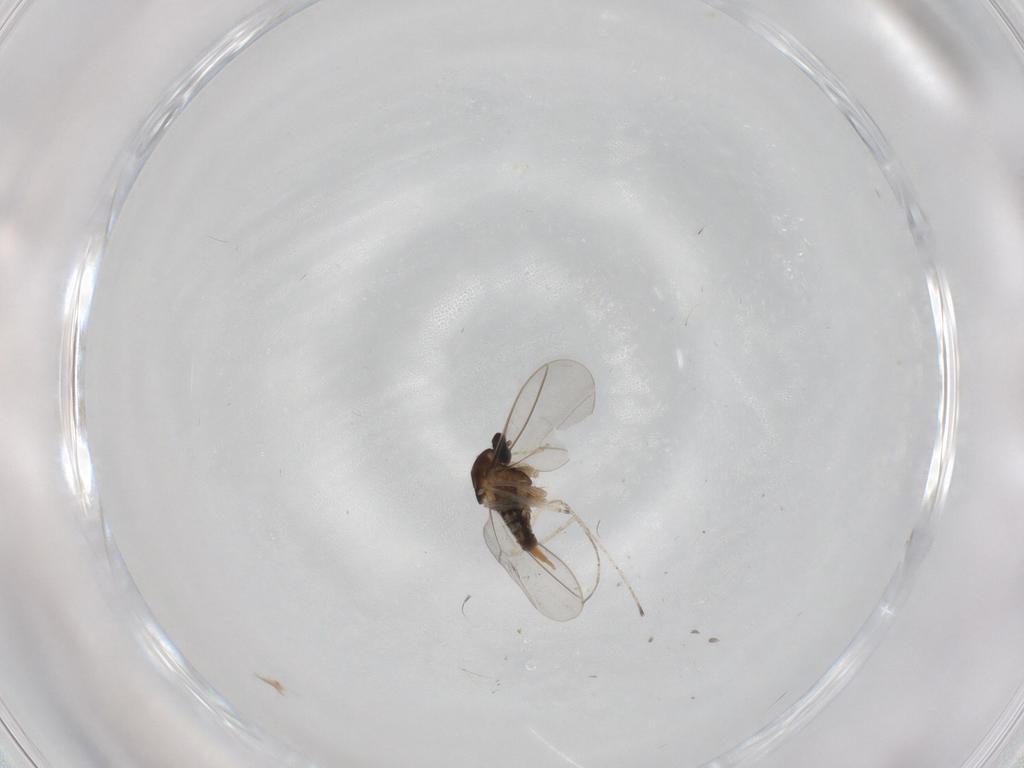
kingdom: Animalia
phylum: Arthropoda
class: Insecta
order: Diptera
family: Cecidomyiidae
